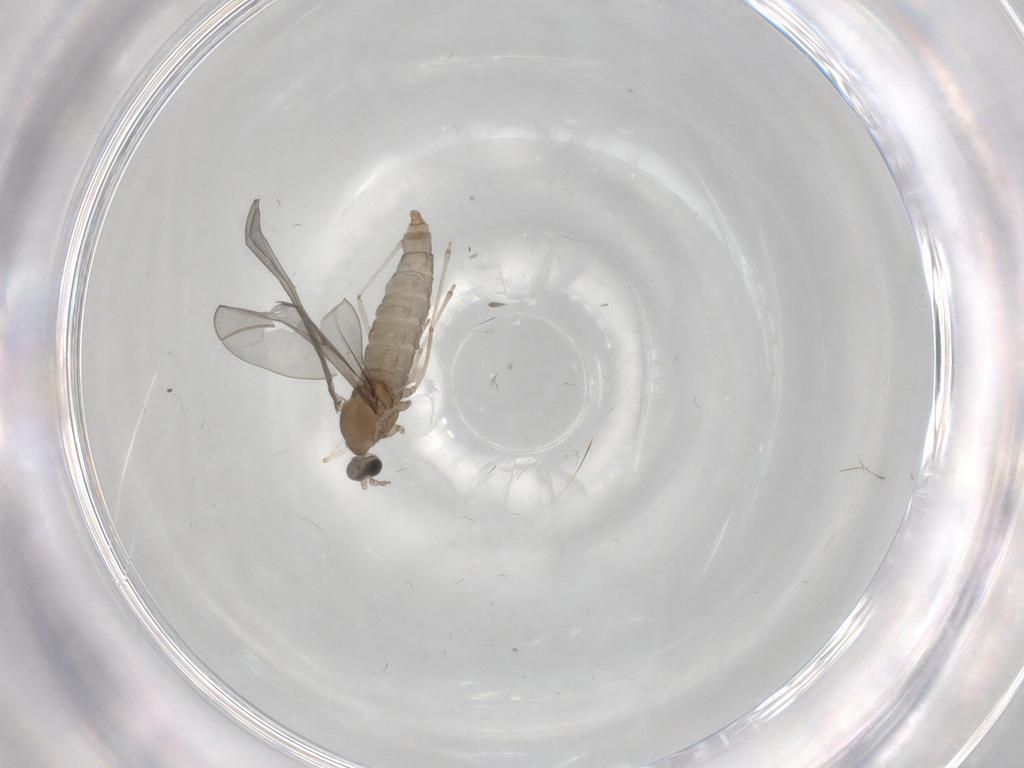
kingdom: Animalia
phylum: Arthropoda
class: Insecta
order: Diptera
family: Cecidomyiidae
